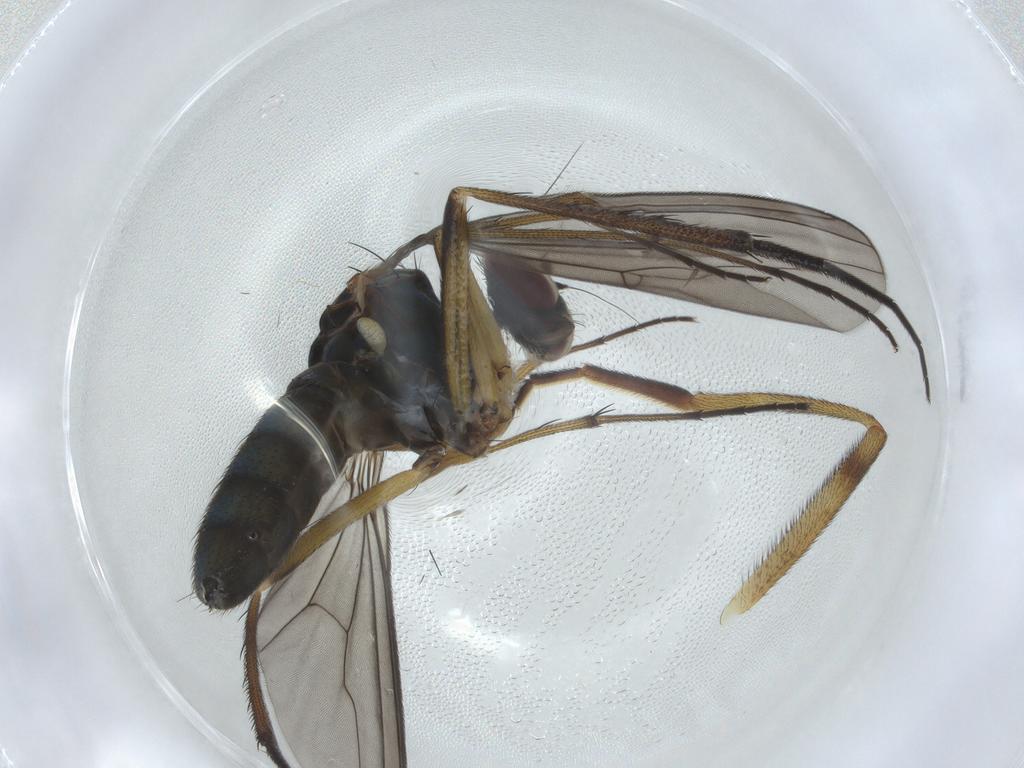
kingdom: Animalia
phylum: Arthropoda
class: Insecta
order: Diptera
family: Dolichopodidae
